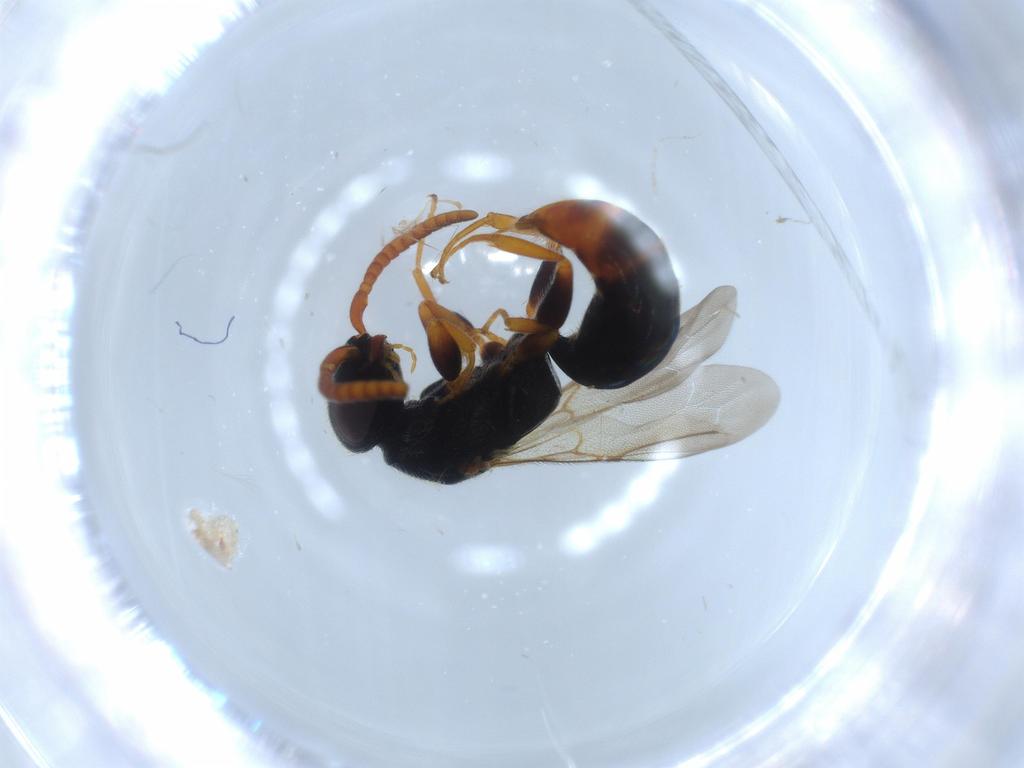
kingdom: Animalia
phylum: Arthropoda
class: Insecta
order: Hymenoptera
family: Bethylidae
